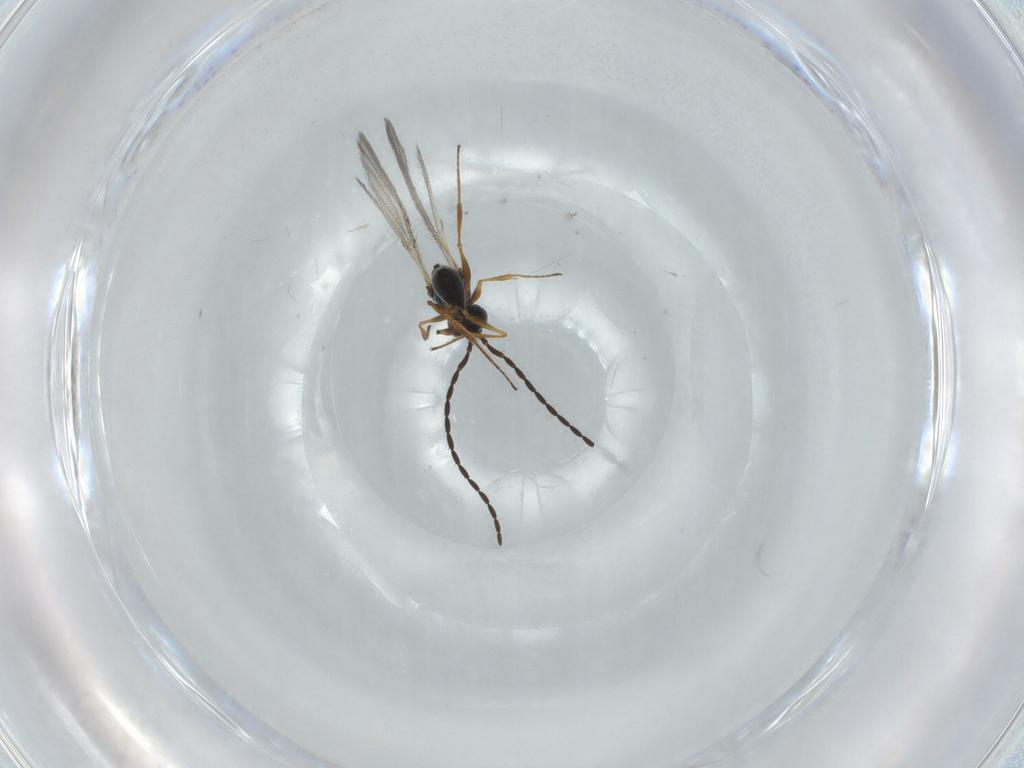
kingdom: Animalia
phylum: Arthropoda
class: Insecta
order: Hymenoptera
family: Figitidae
